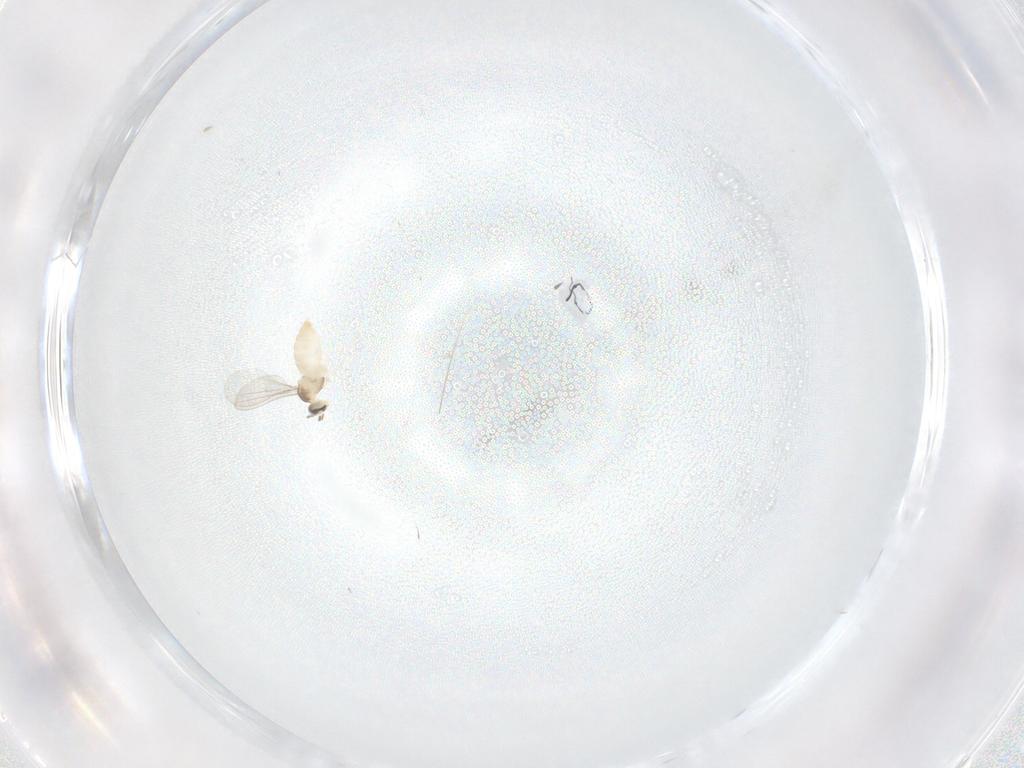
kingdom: Animalia
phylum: Arthropoda
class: Insecta
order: Diptera
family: Cecidomyiidae
